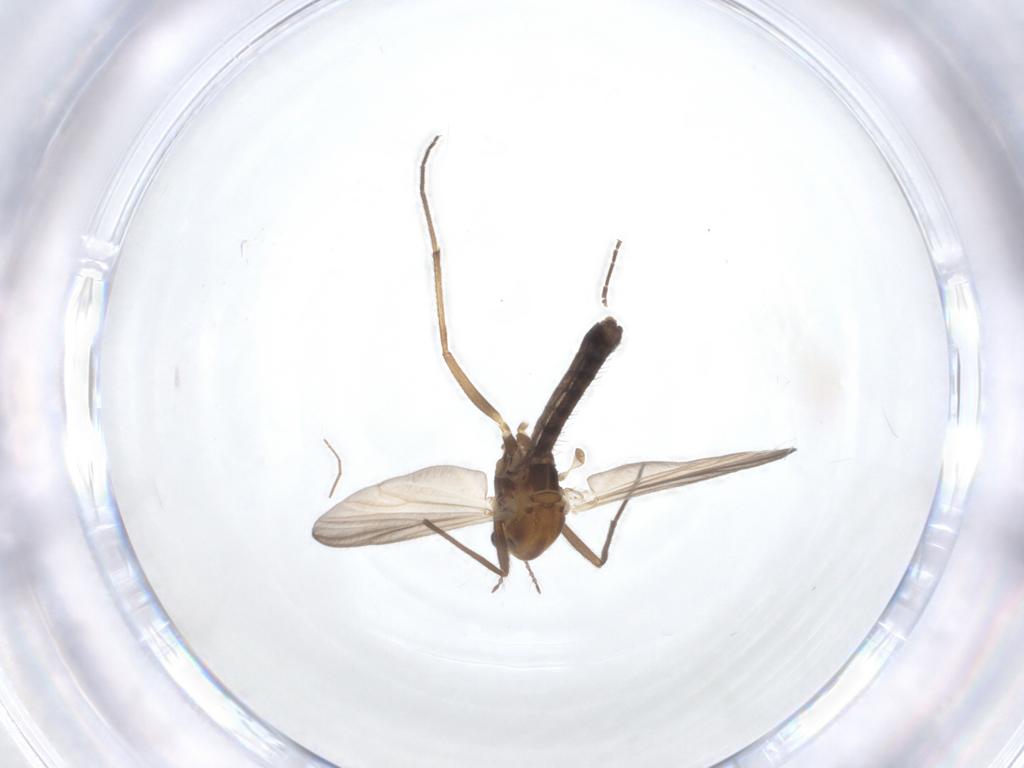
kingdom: Animalia
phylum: Arthropoda
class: Insecta
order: Diptera
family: Chironomidae
